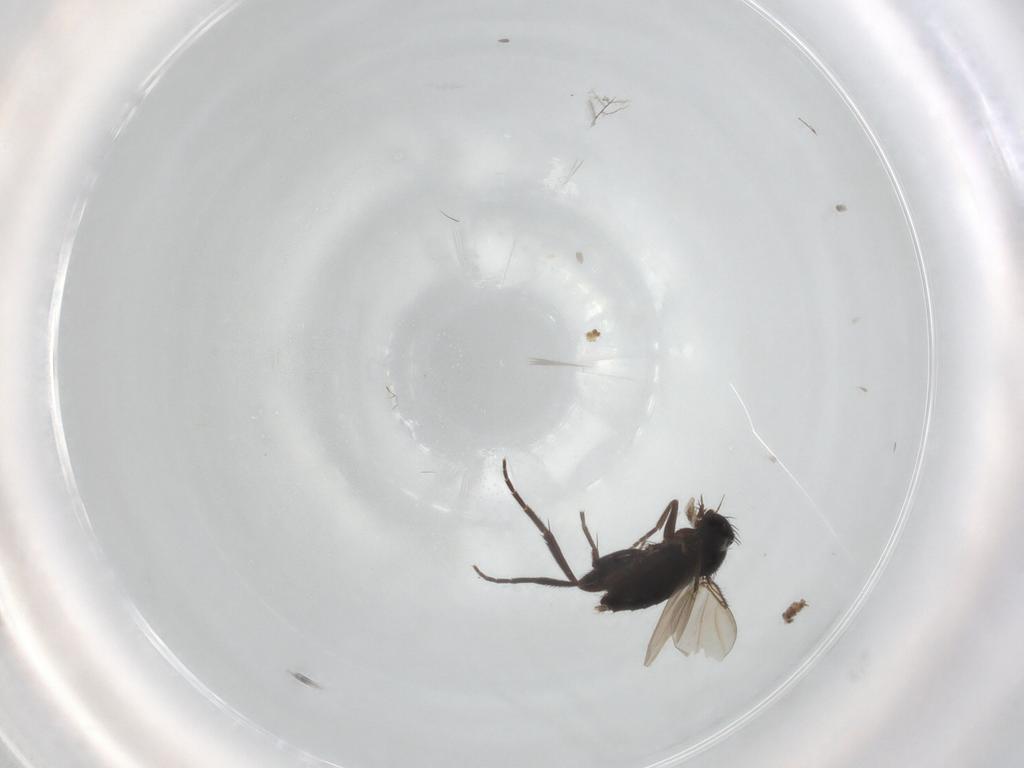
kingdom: Animalia
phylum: Arthropoda
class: Insecta
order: Diptera
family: Phoridae
